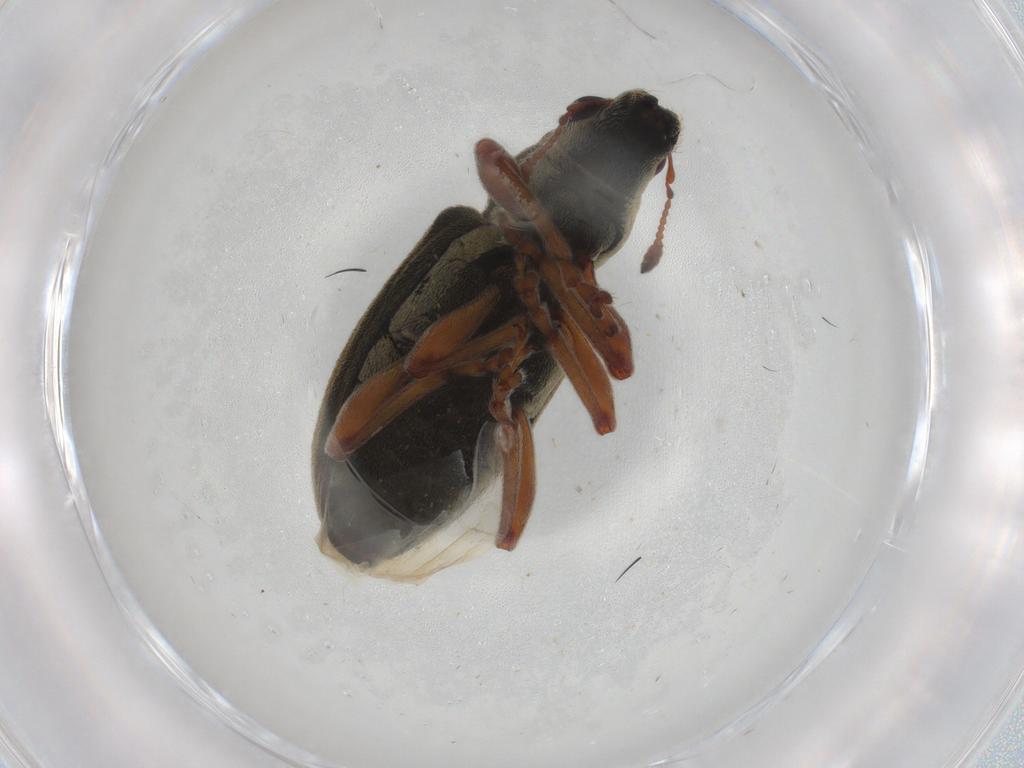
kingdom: Animalia
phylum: Arthropoda
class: Insecta
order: Coleoptera
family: Curculionidae
